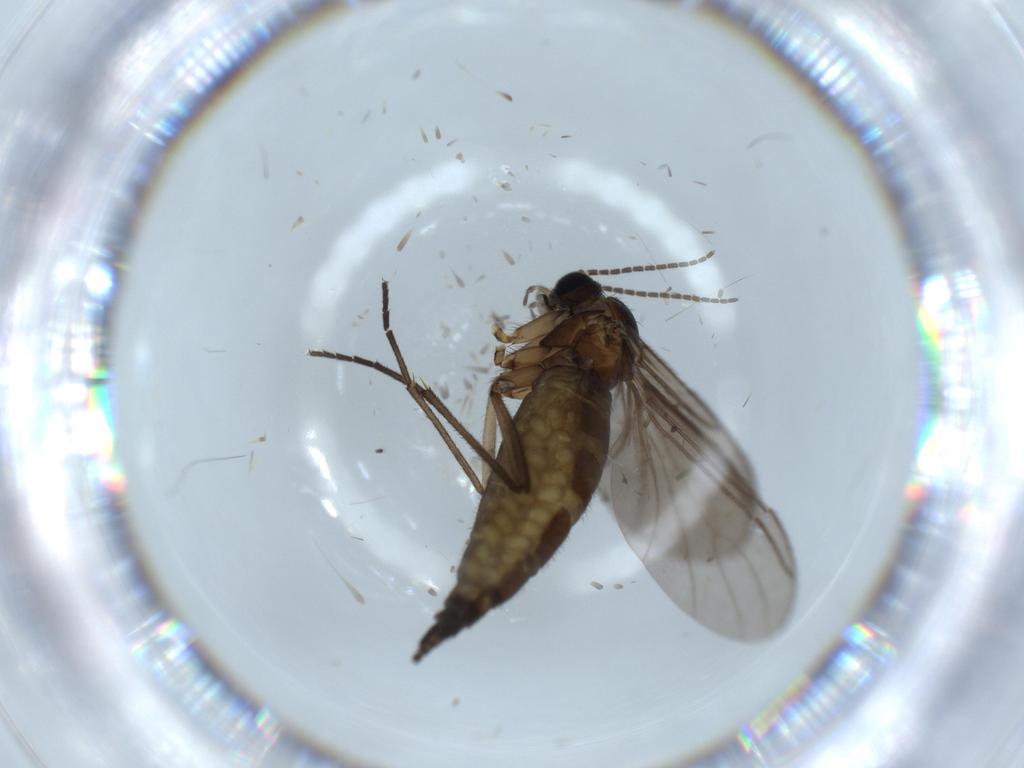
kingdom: Animalia
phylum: Arthropoda
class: Insecta
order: Diptera
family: Sciaridae
